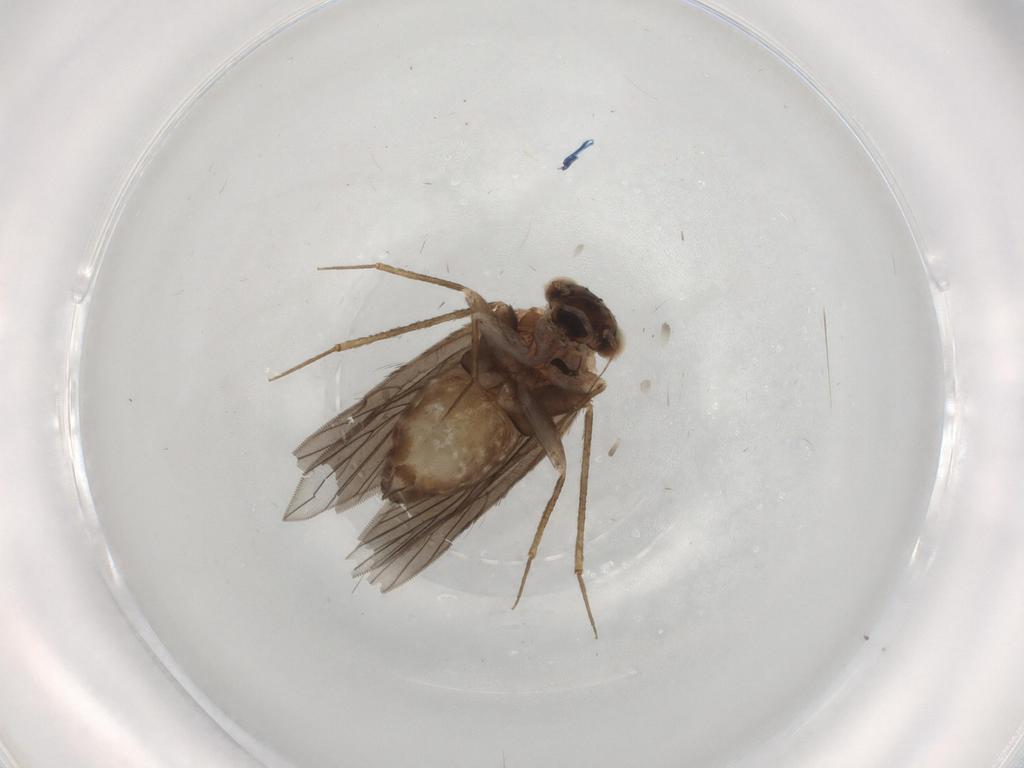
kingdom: Animalia
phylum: Arthropoda
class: Insecta
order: Psocodea
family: Lepidopsocidae
